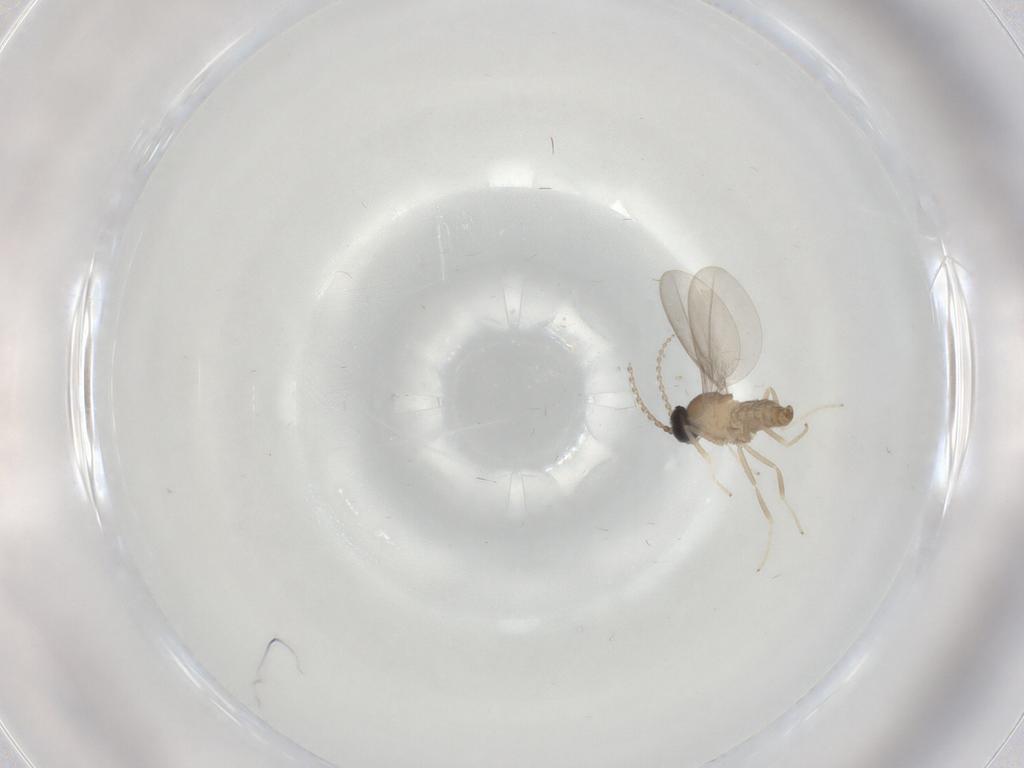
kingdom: Animalia
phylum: Arthropoda
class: Insecta
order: Diptera
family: Cecidomyiidae
